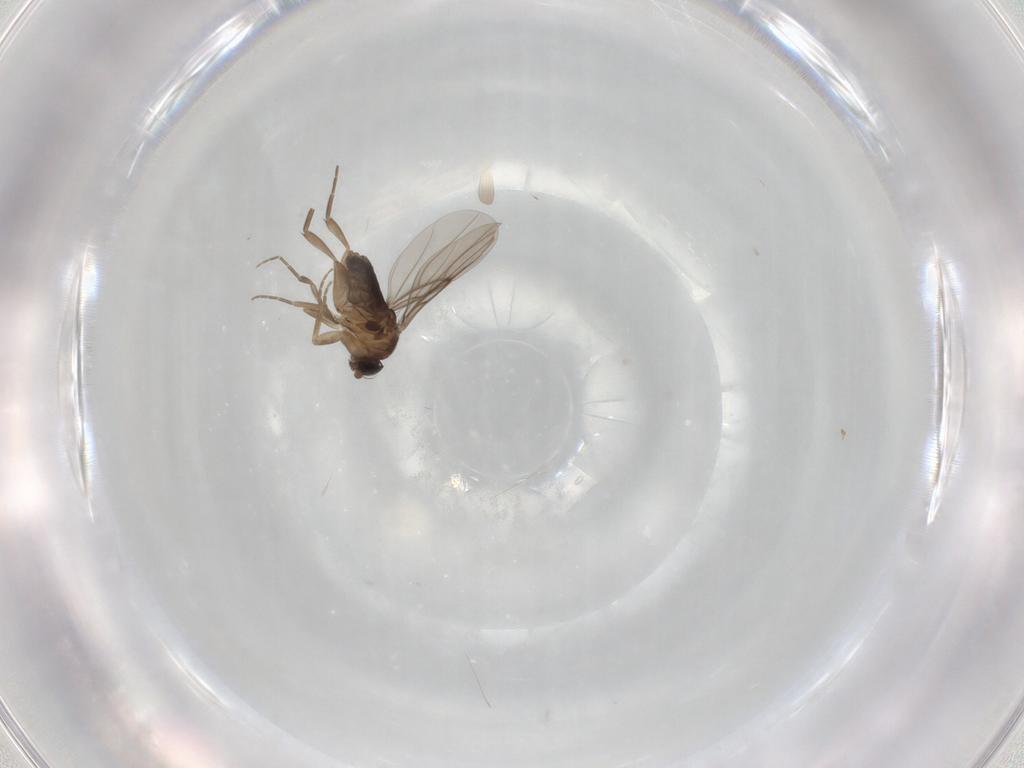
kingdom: Animalia
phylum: Arthropoda
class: Insecta
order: Diptera
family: Phoridae
